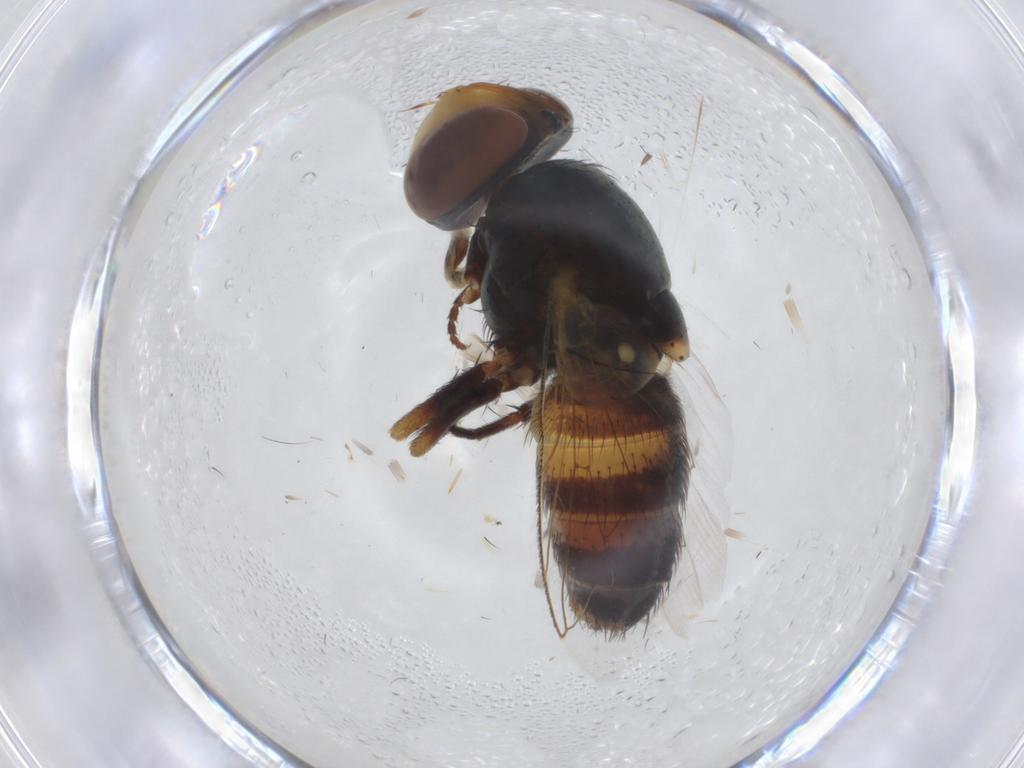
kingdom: Animalia
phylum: Arthropoda
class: Insecta
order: Diptera
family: Sarcophagidae
